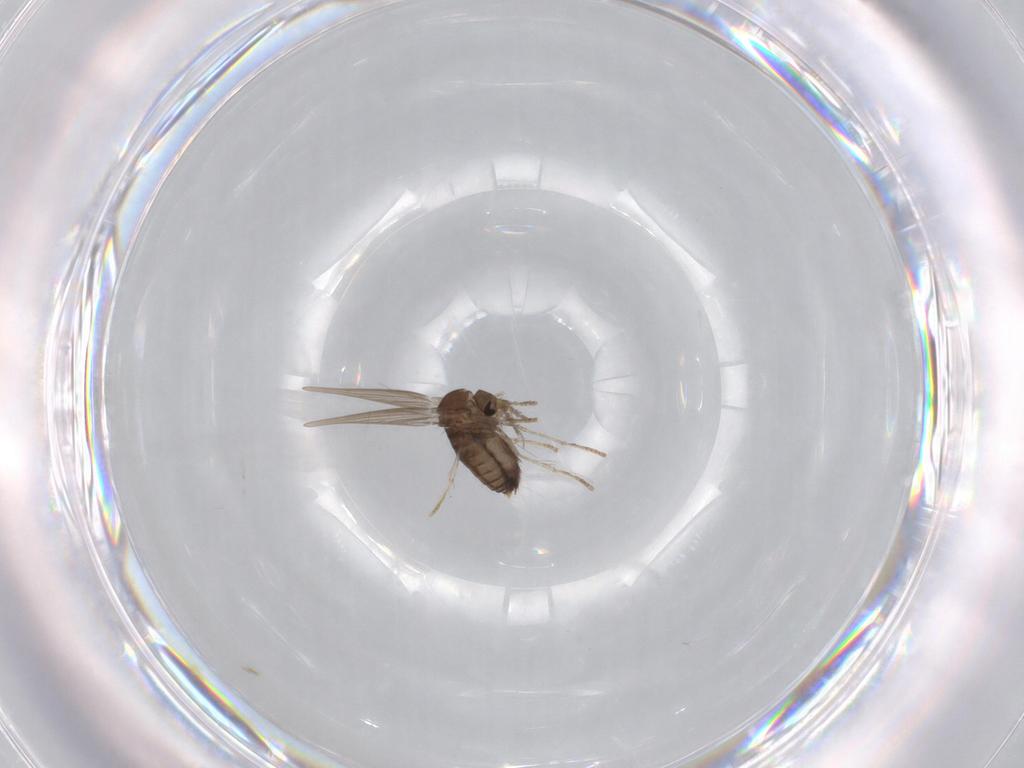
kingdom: Animalia
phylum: Arthropoda
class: Insecta
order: Diptera
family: Psychodidae
